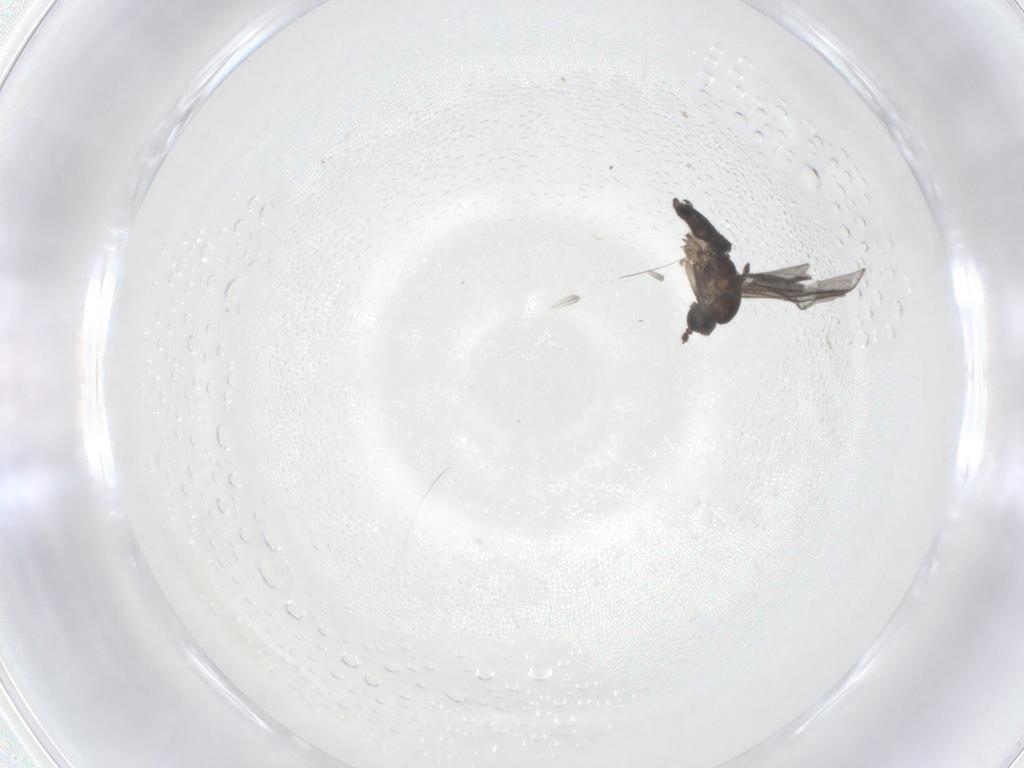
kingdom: Animalia
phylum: Arthropoda
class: Insecta
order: Diptera
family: Sciaridae
